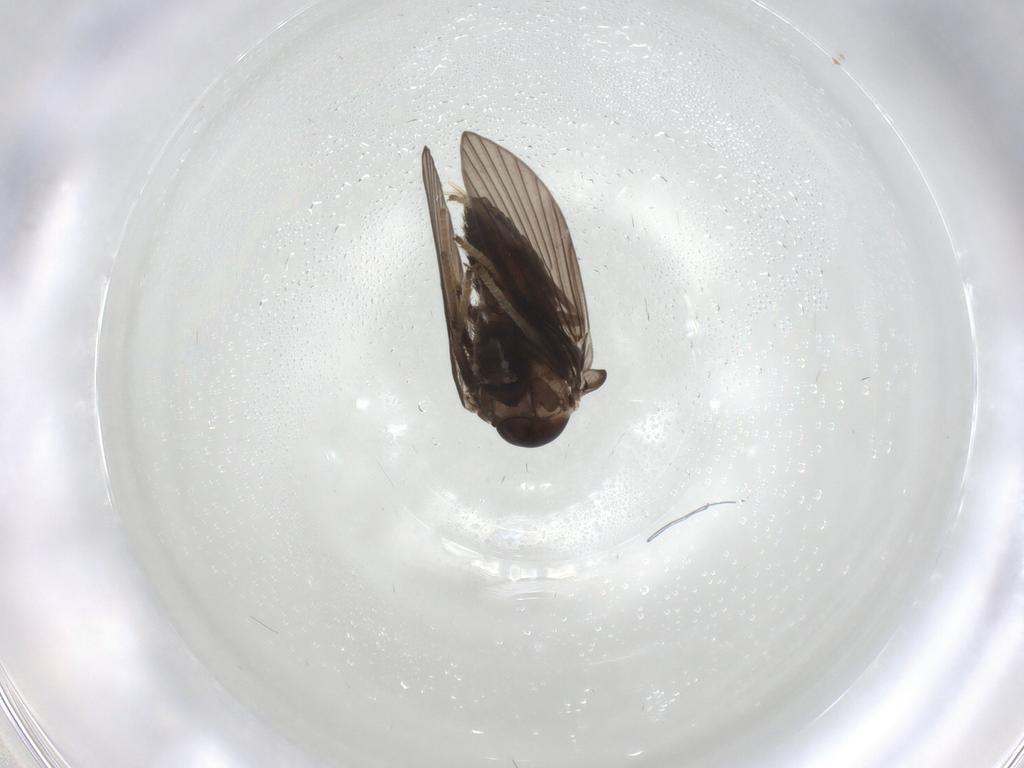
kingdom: Animalia
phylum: Arthropoda
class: Insecta
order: Diptera
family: Psychodidae
